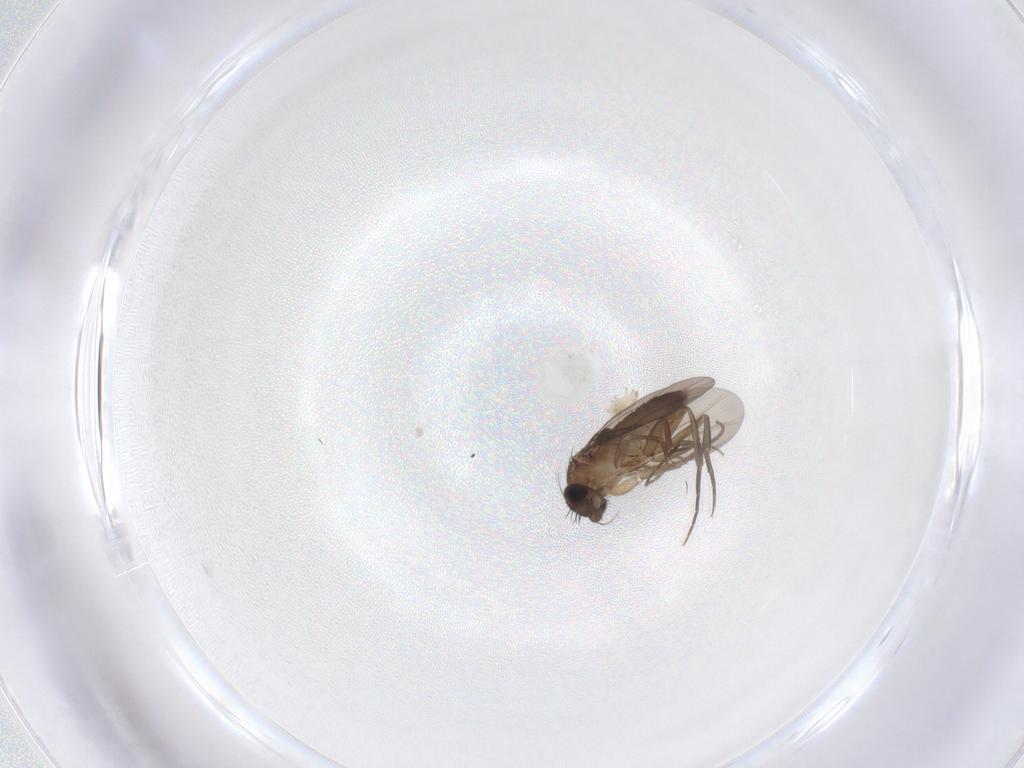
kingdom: Animalia
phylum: Arthropoda
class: Insecta
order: Diptera
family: Phoridae
